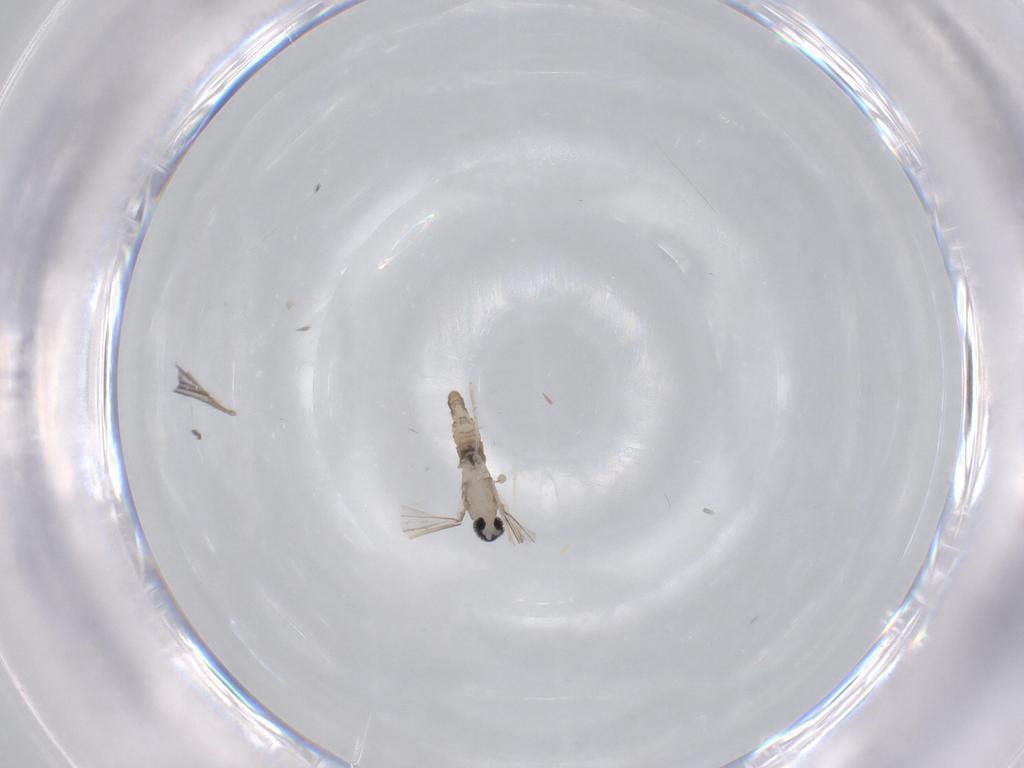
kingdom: Animalia
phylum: Arthropoda
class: Insecta
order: Diptera
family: Cecidomyiidae
